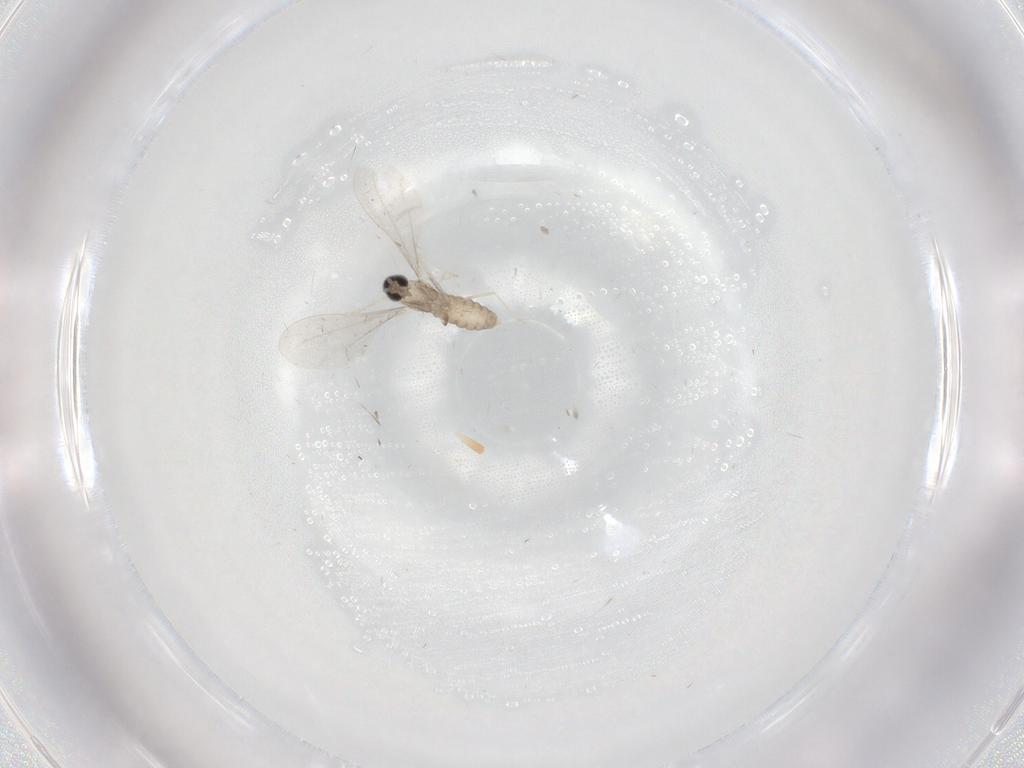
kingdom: Animalia
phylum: Arthropoda
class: Insecta
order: Diptera
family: Cecidomyiidae
